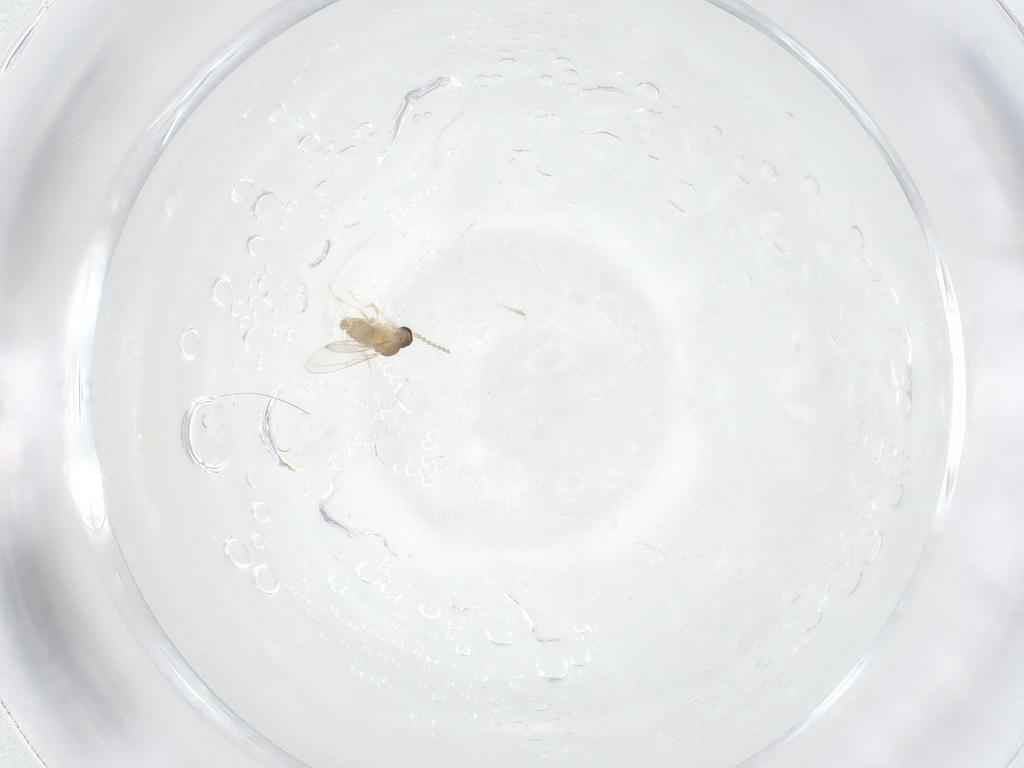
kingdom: Animalia
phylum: Arthropoda
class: Insecta
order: Diptera
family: Cecidomyiidae
